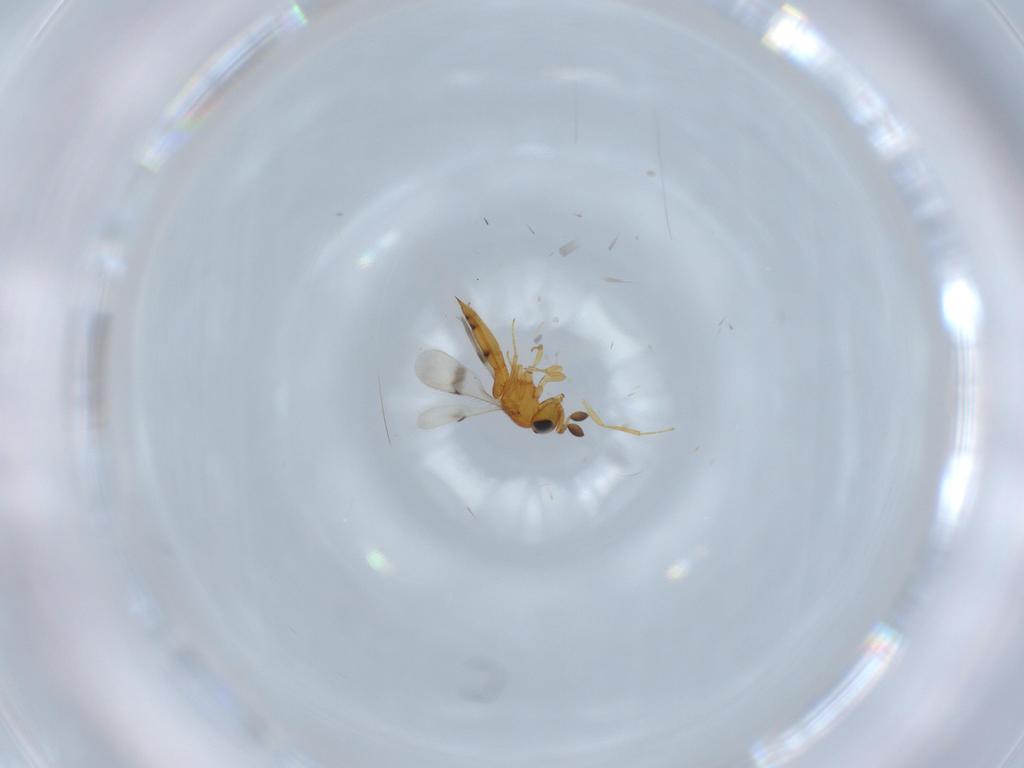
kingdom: Animalia
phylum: Arthropoda
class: Insecta
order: Hymenoptera
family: Scelionidae
